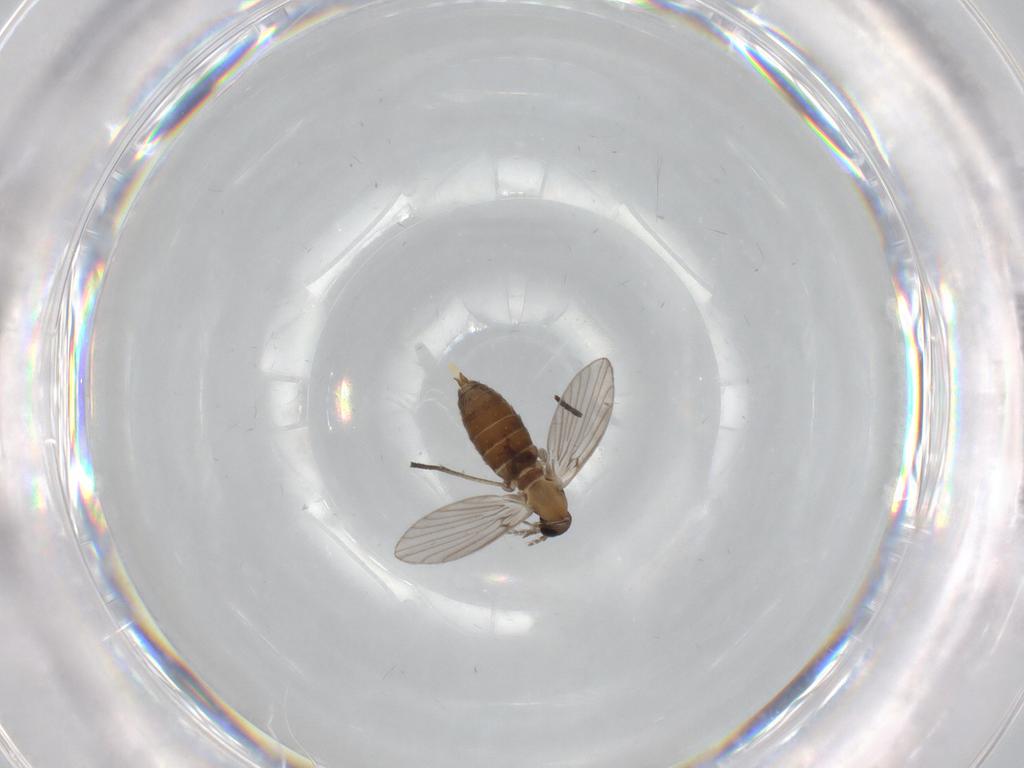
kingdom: Animalia
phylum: Arthropoda
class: Insecta
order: Diptera
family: Psychodidae
